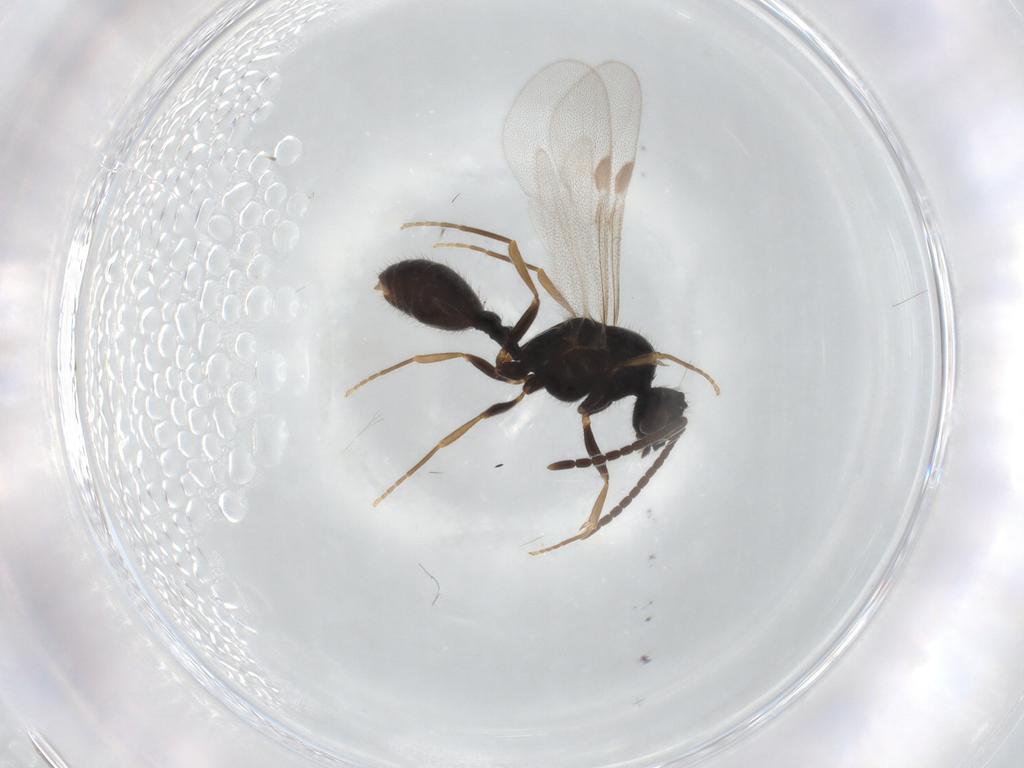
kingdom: Animalia
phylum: Arthropoda
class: Insecta
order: Hymenoptera
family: Formicidae
